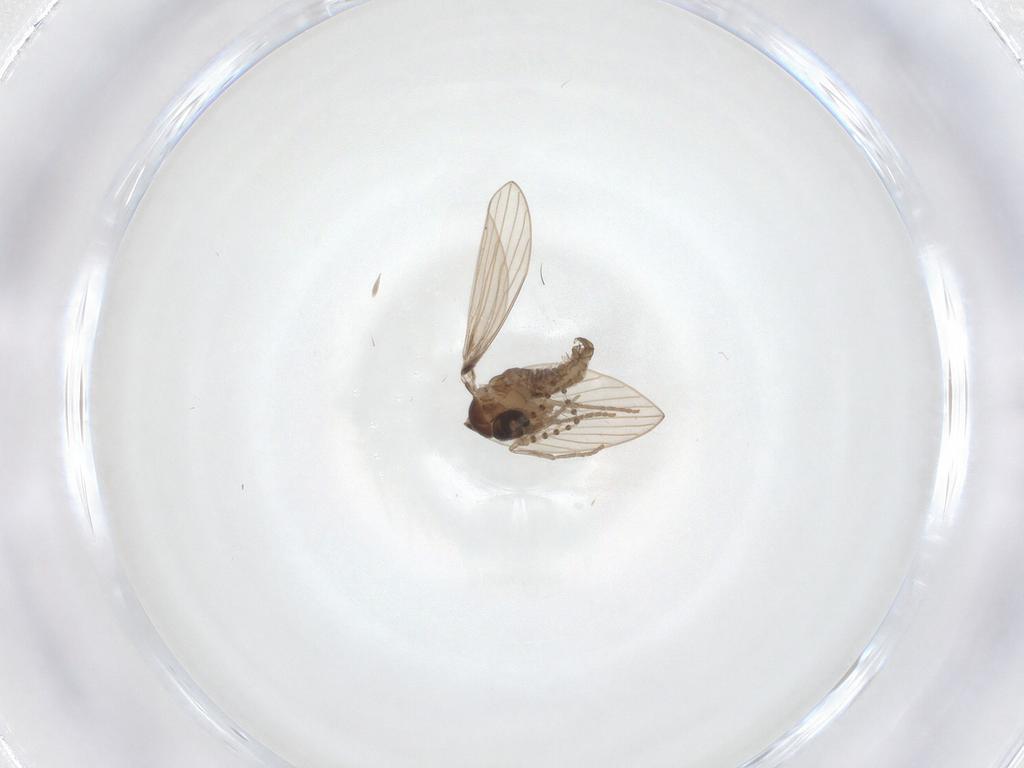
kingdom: Animalia
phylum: Arthropoda
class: Insecta
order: Diptera
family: Psychodidae
